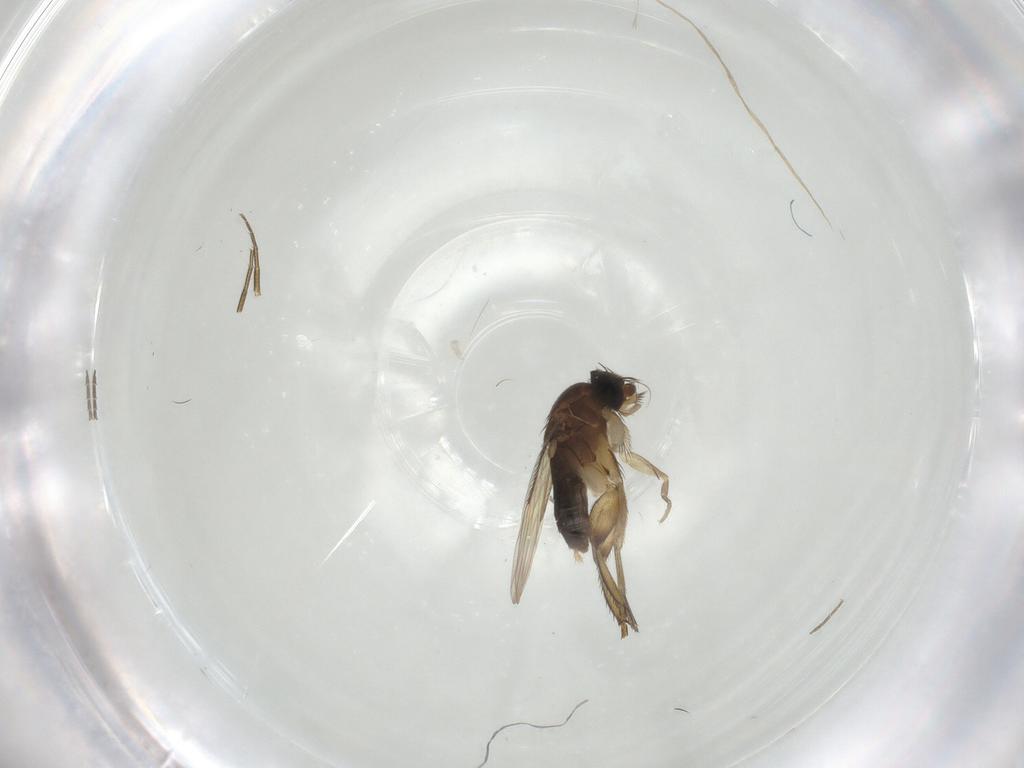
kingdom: Animalia
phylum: Arthropoda
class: Insecta
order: Diptera
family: Phoridae
